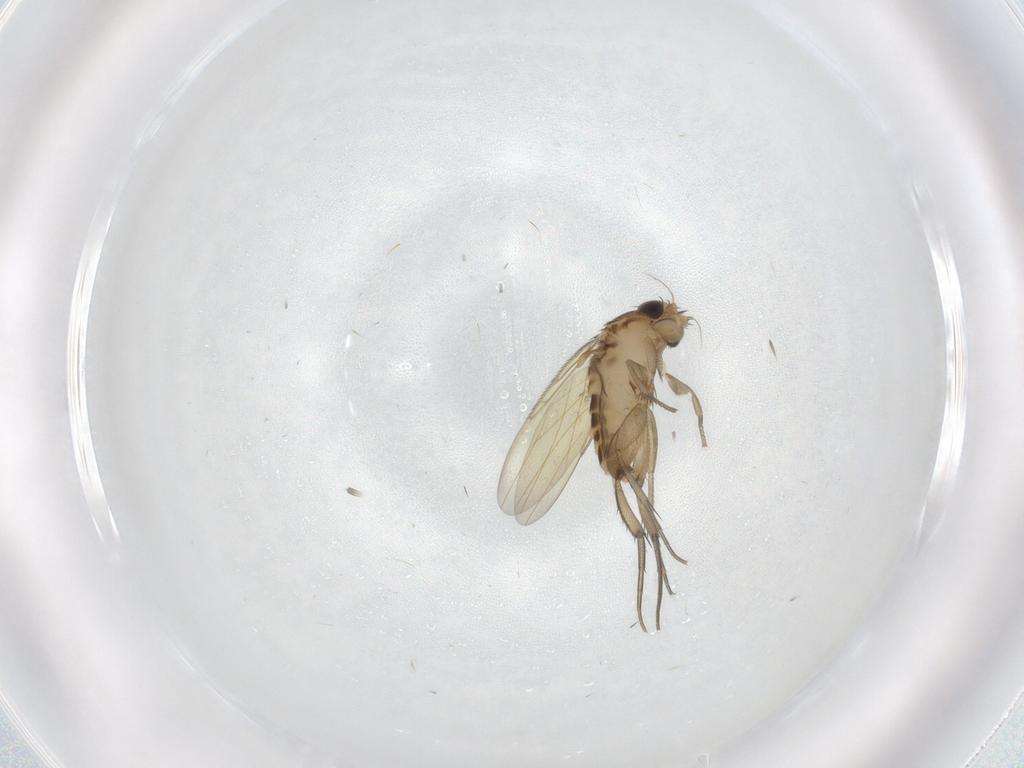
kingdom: Animalia
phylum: Arthropoda
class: Insecta
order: Diptera
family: Phoridae
